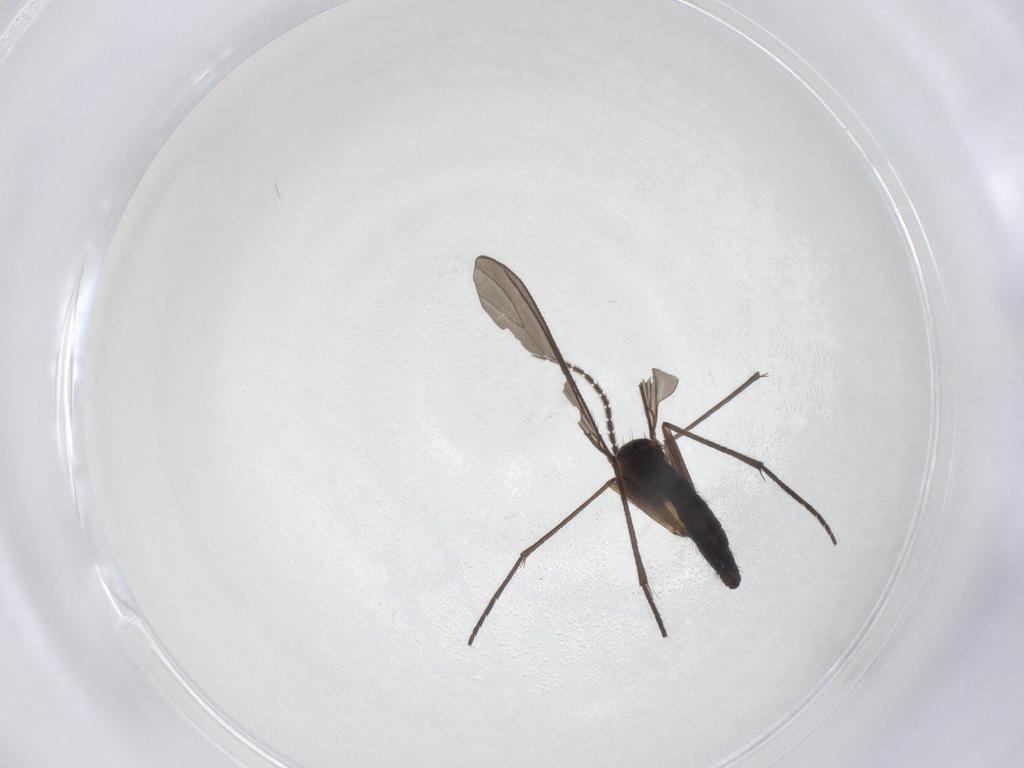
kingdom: Animalia
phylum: Arthropoda
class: Insecta
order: Diptera
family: Sciaridae
